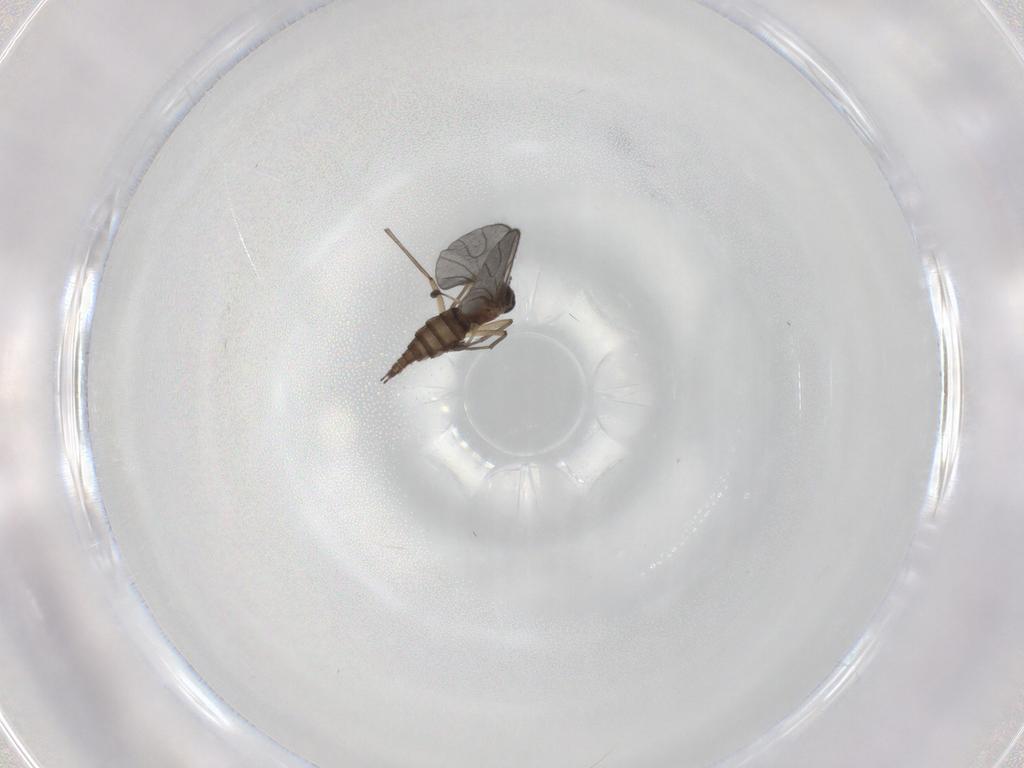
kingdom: Animalia
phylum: Arthropoda
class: Insecta
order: Diptera
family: Sciaridae
